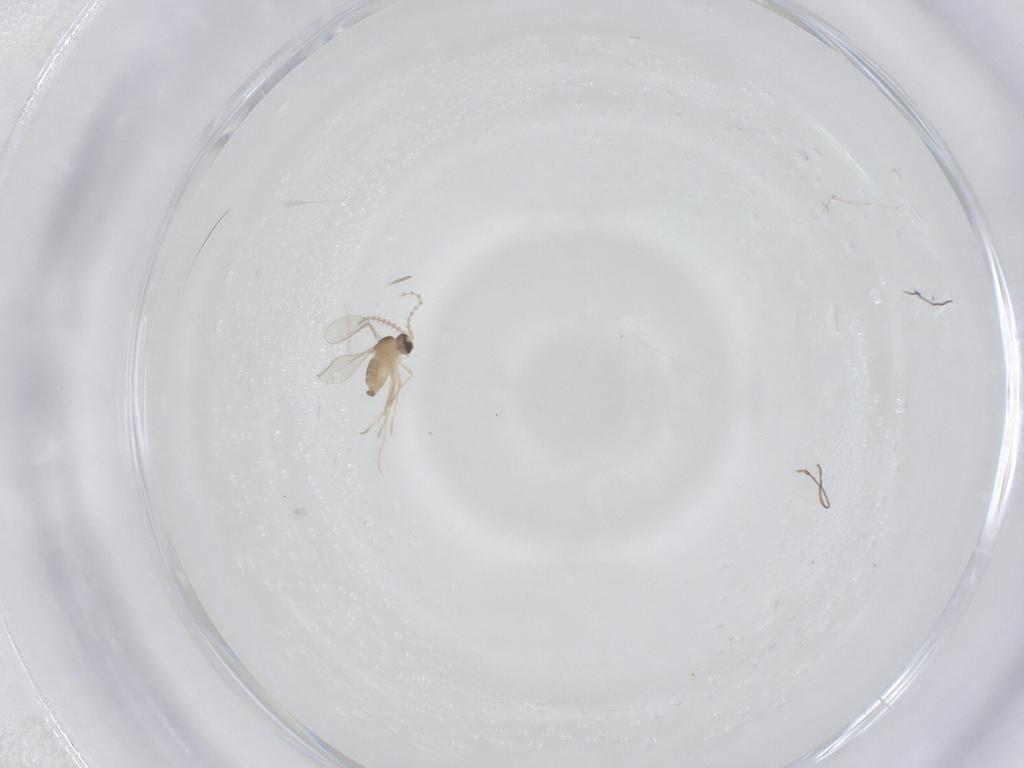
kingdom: Animalia
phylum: Arthropoda
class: Insecta
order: Diptera
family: Cecidomyiidae
